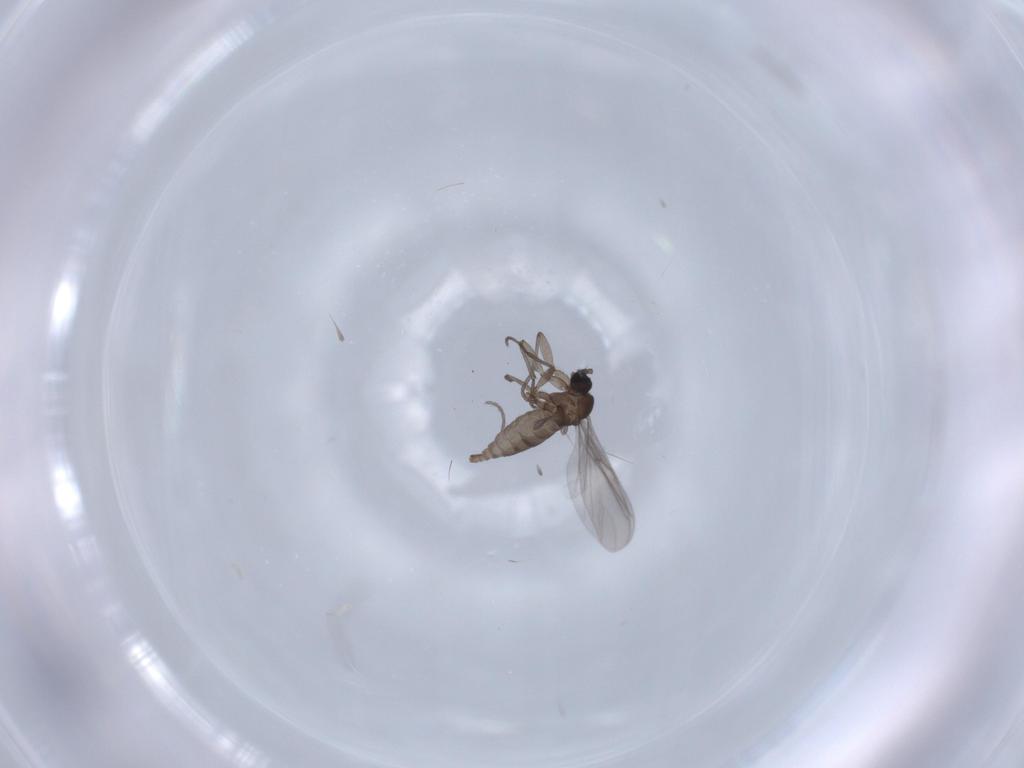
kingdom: Animalia
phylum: Arthropoda
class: Insecta
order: Diptera
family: Sciaridae
